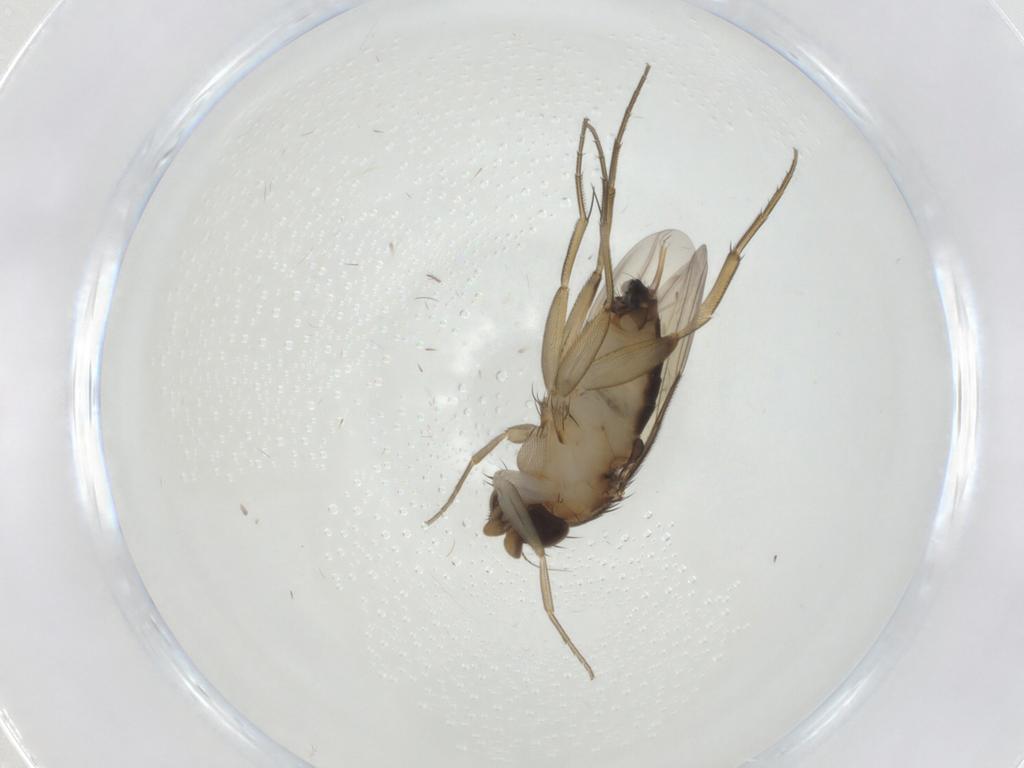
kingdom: Animalia
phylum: Arthropoda
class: Insecta
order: Diptera
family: Phoridae
